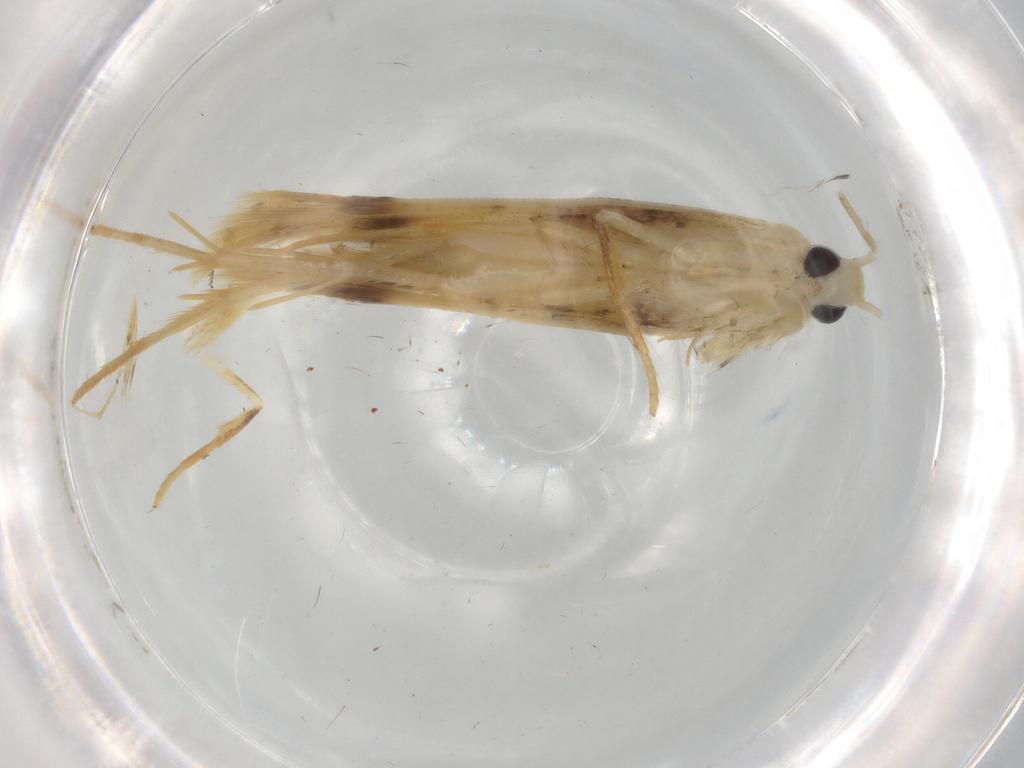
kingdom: Animalia
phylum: Arthropoda
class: Insecta
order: Lepidoptera
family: Gelechiidae
